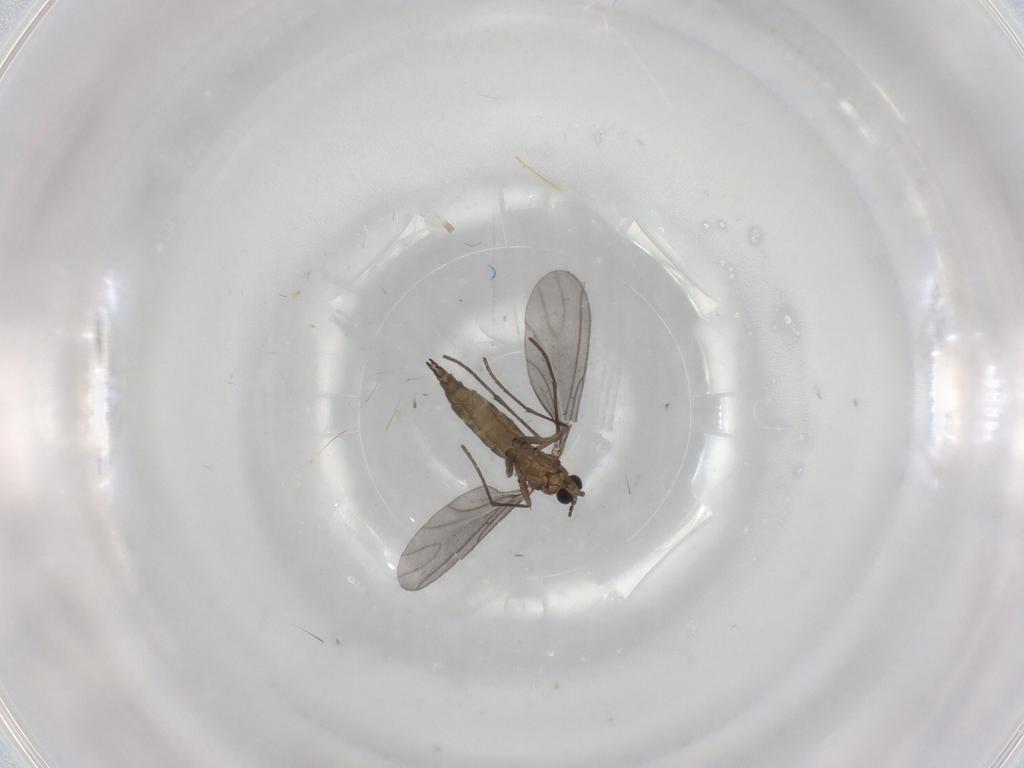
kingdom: Animalia
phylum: Arthropoda
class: Insecta
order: Diptera
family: Sciaridae
